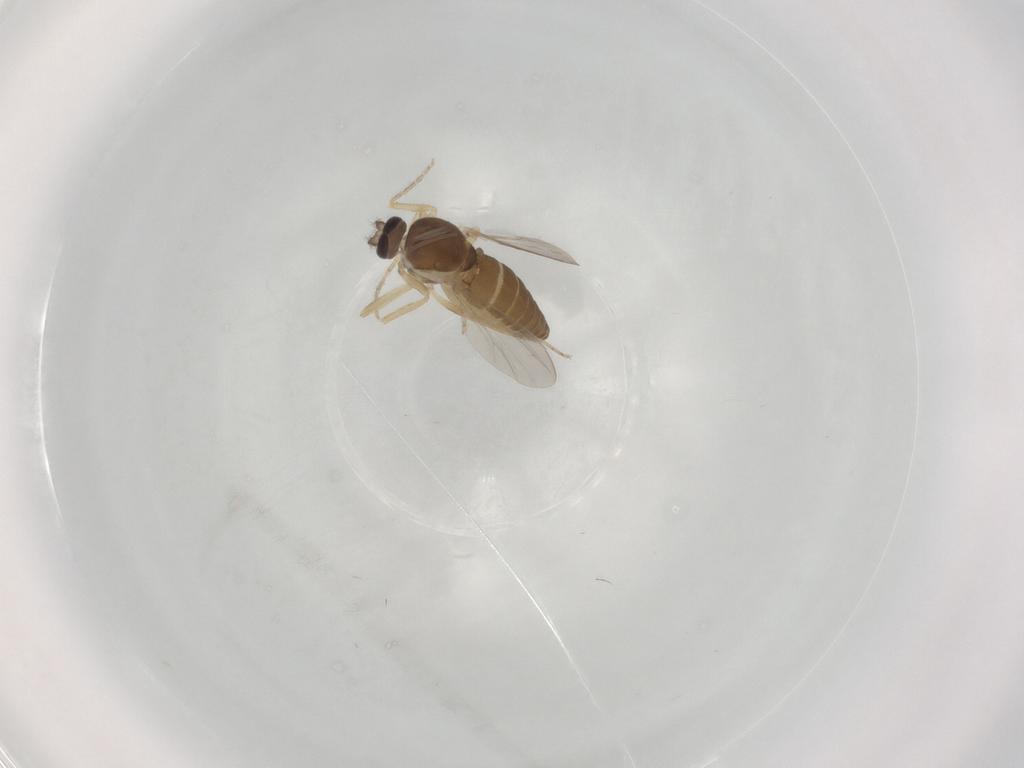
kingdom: Animalia
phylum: Arthropoda
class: Insecta
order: Diptera
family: Ceratopogonidae
